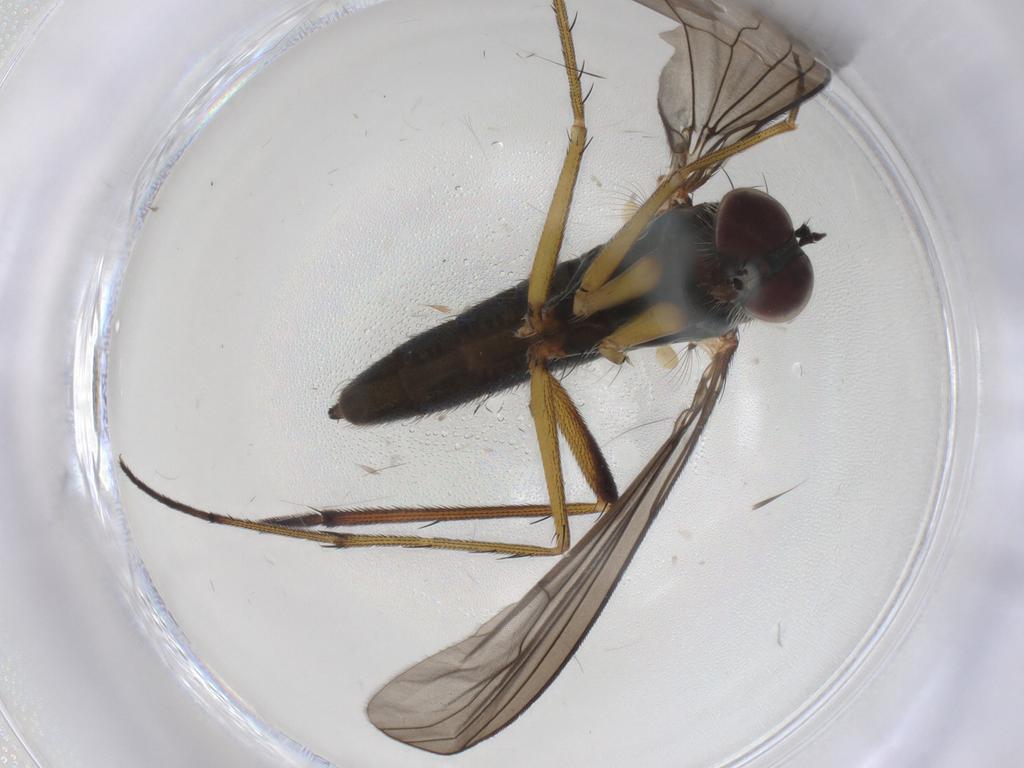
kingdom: Animalia
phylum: Arthropoda
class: Insecta
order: Diptera
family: Dolichopodidae
